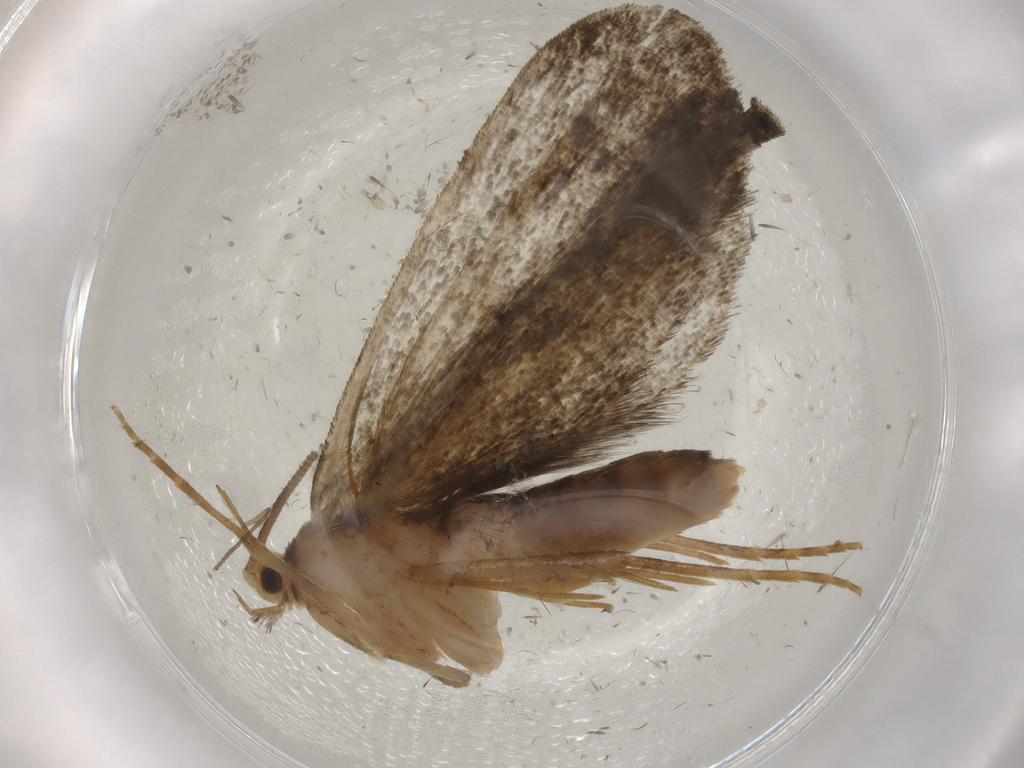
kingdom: Animalia
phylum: Arthropoda
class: Insecta
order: Lepidoptera
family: Dryadaulidae
